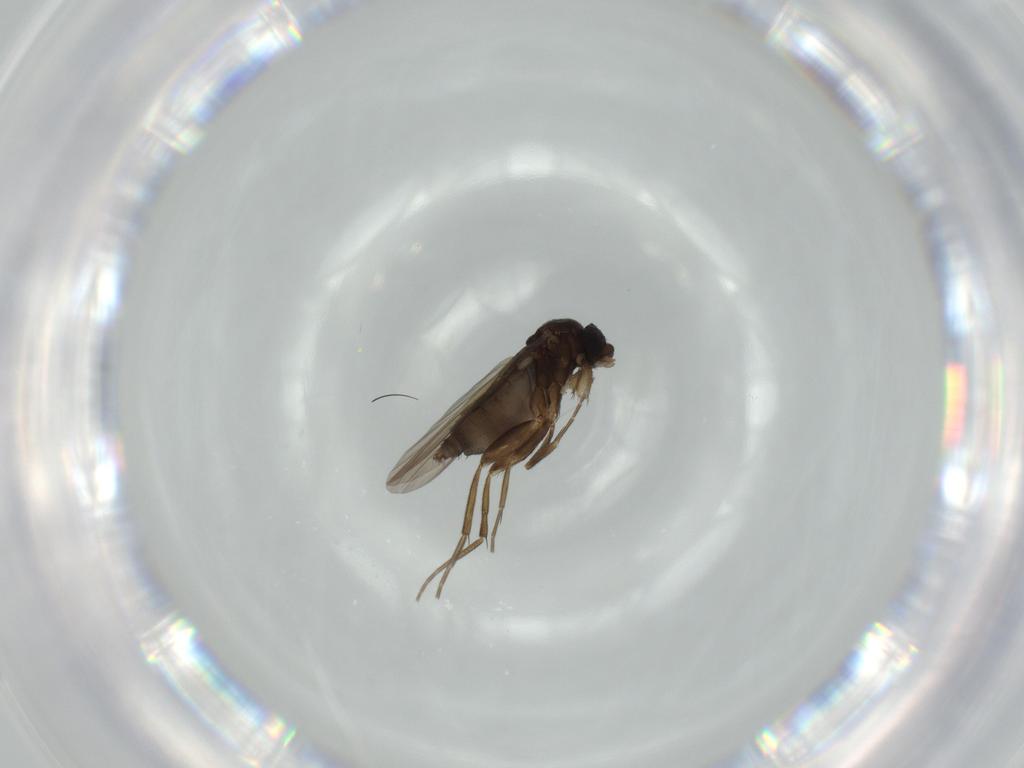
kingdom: Animalia
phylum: Arthropoda
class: Insecta
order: Diptera
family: Phoridae
